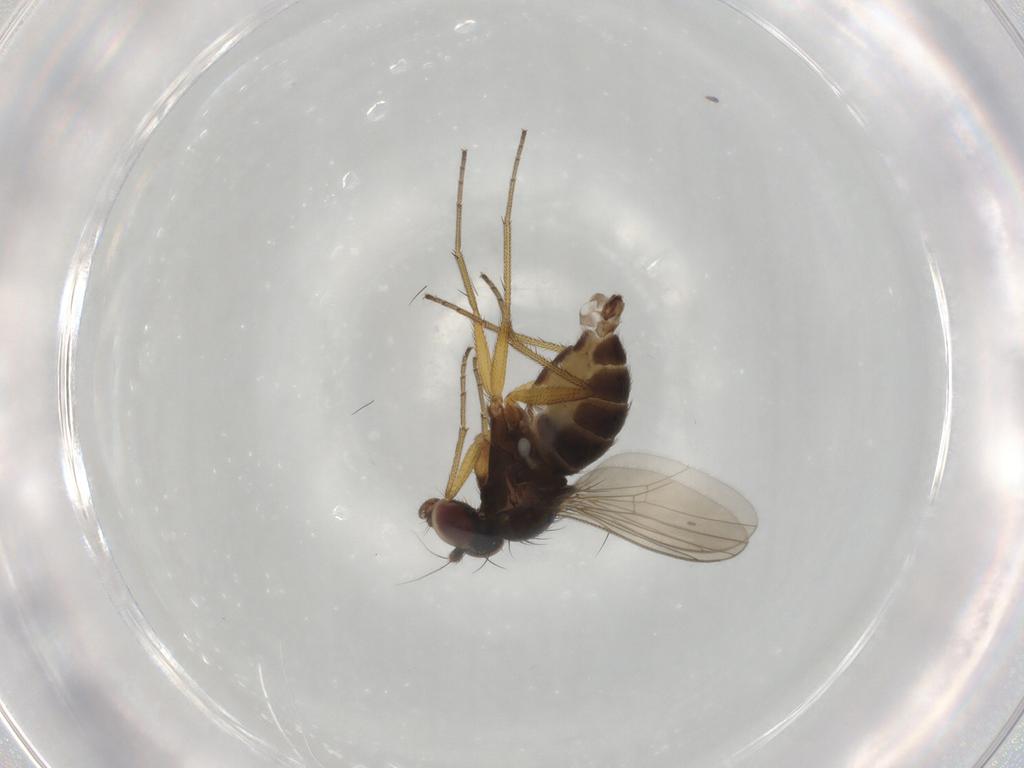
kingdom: Animalia
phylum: Arthropoda
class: Insecta
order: Diptera
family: Dolichopodidae
